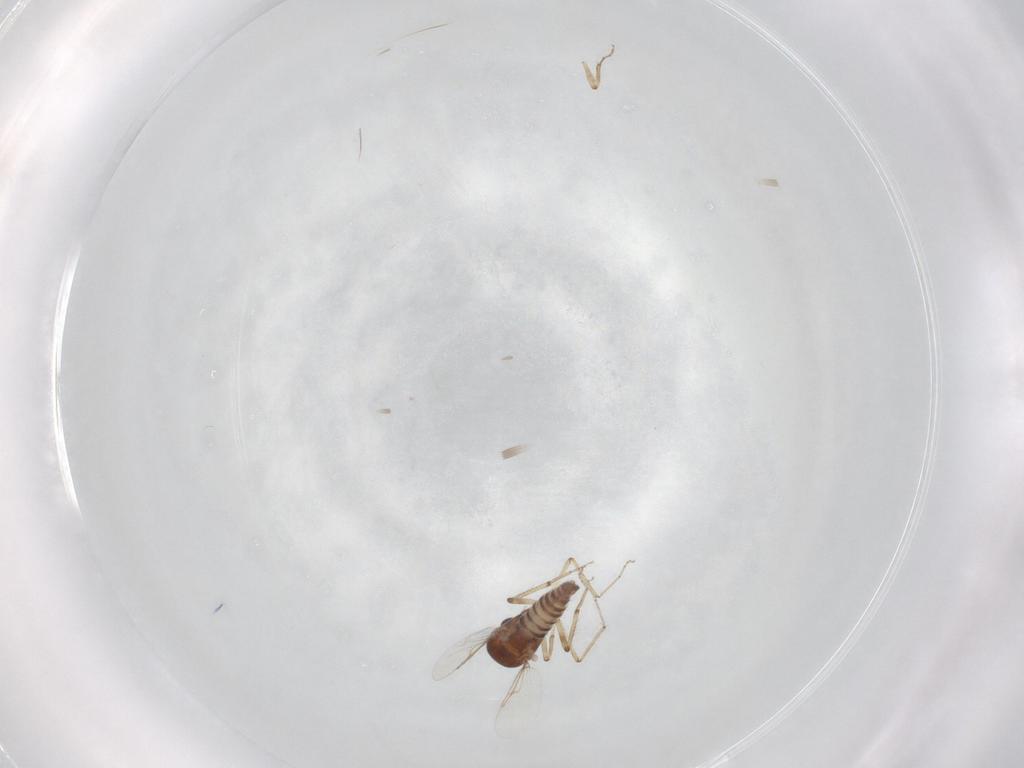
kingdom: Animalia
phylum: Arthropoda
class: Insecta
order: Diptera
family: Ceratopogonidae
